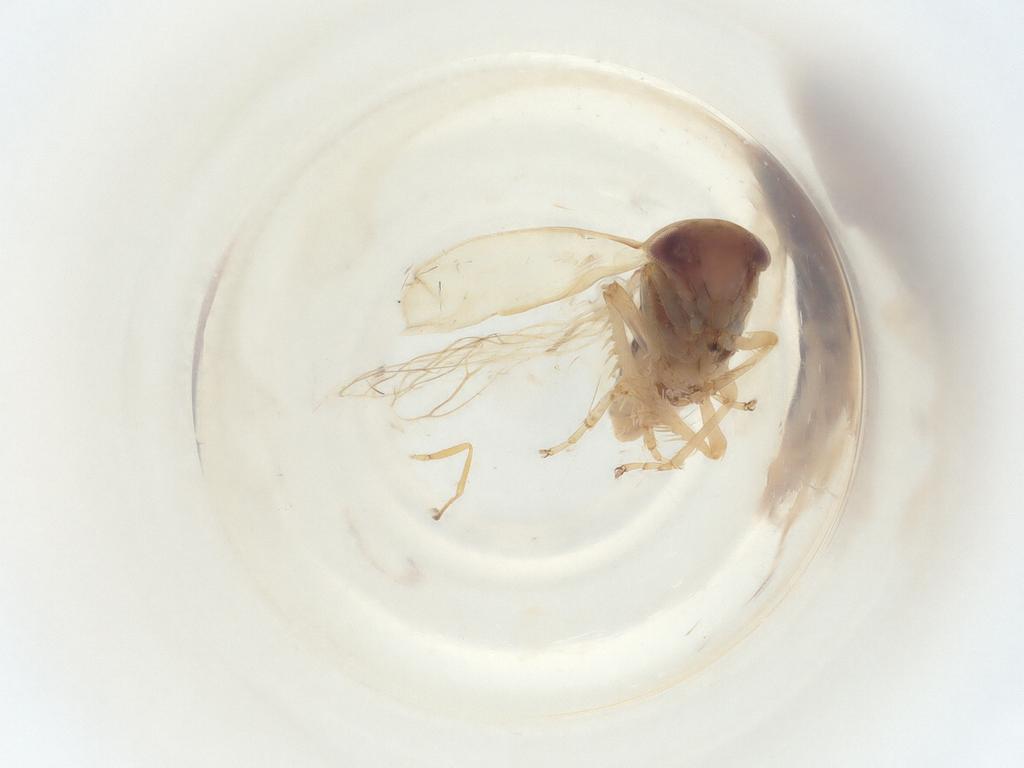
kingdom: Animalia
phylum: Arthropoda
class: Insecta
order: Hemiptera
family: Cicadellidae
